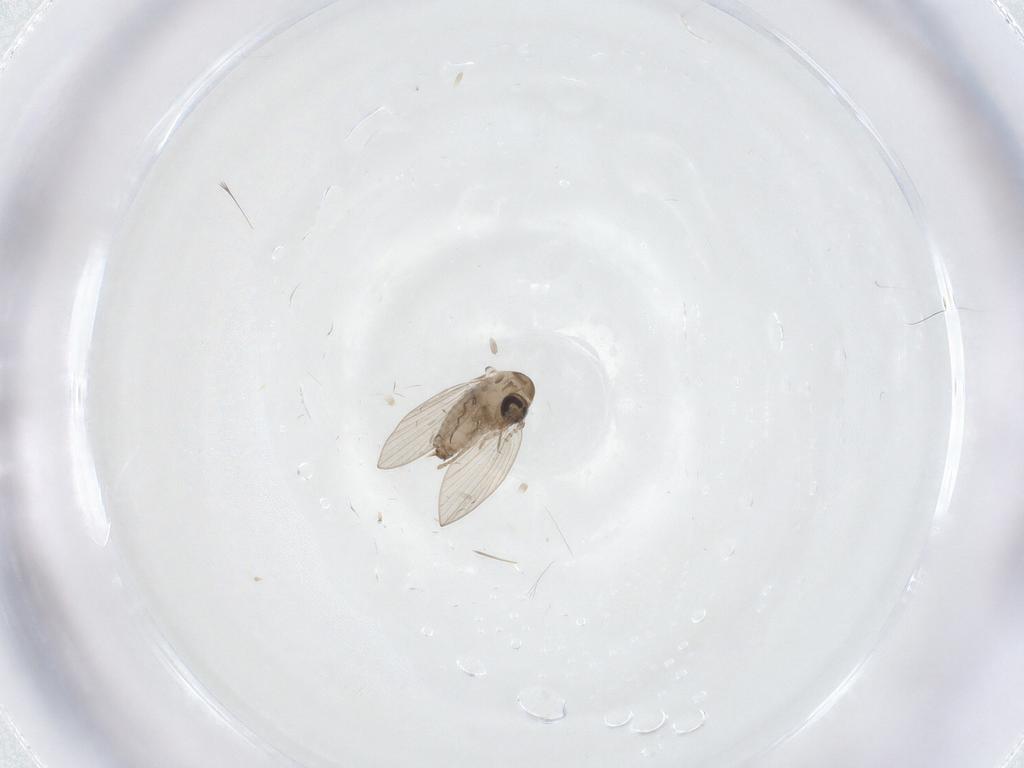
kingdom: Animalia
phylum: Arthropoda
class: Insecta
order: Diptera
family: Psychodidae
